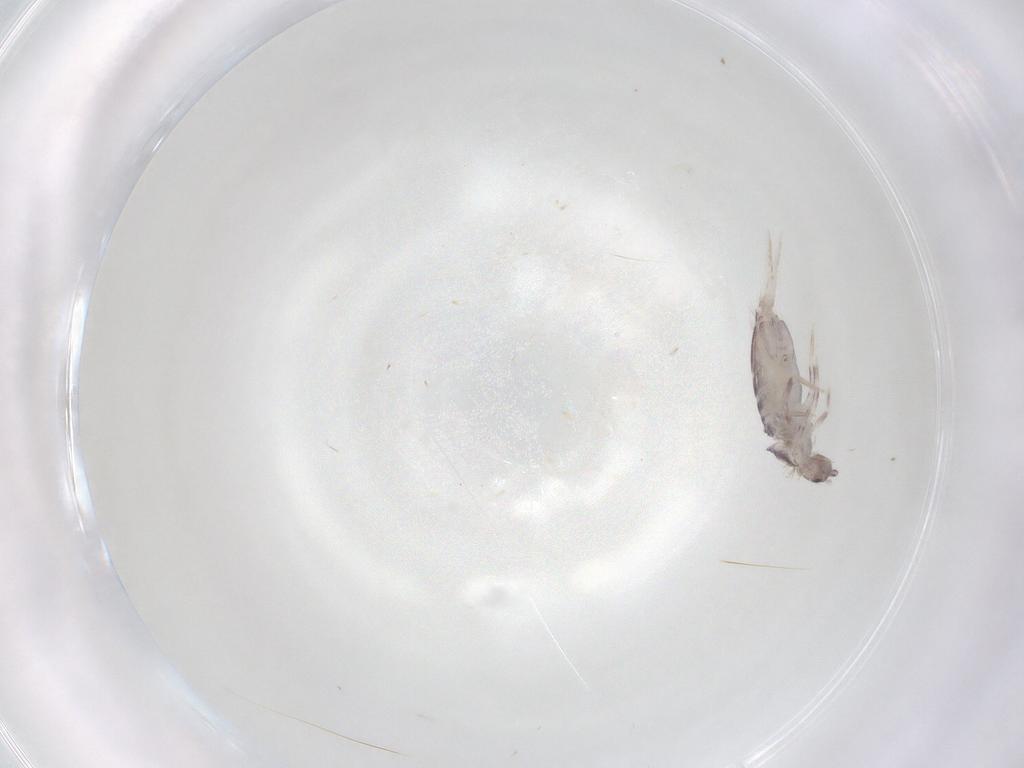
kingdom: Animalia
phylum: Arthropoda
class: Collembola
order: Poduromorpha
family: Hypogastruridae
